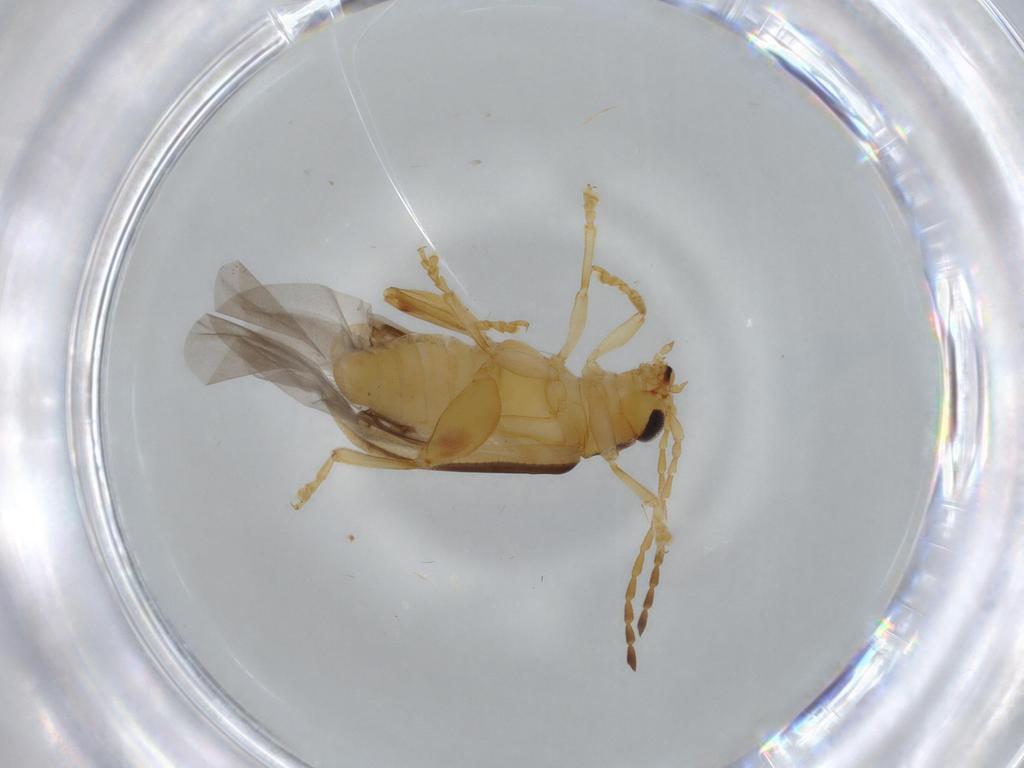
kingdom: Animalia
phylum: Arthropoda
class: Insecta
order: Coleoptera
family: Chrysomelidae
